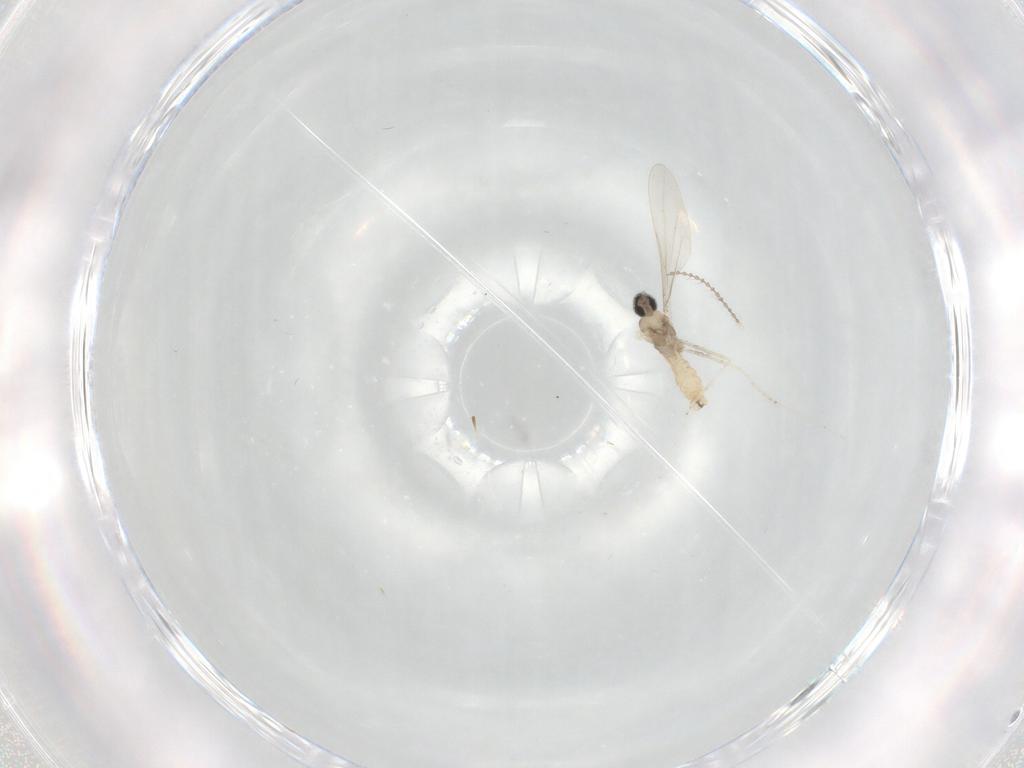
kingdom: Animalia
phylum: Arthropoda
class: Insecta
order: Diptera
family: Cecidomyiidae
